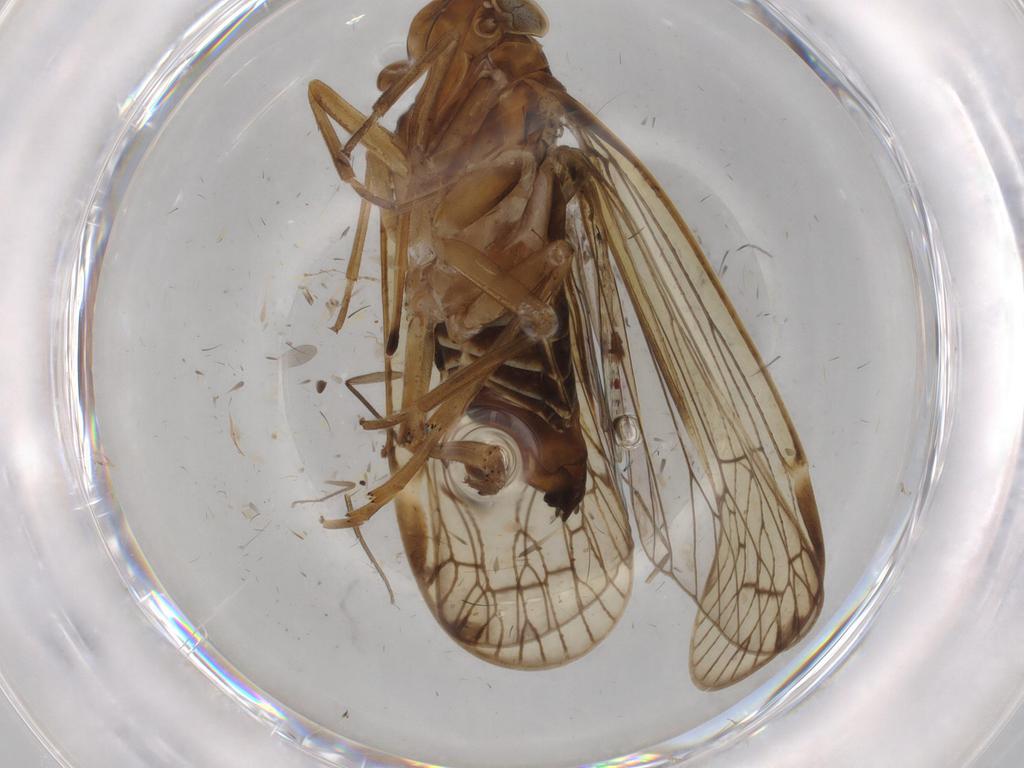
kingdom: Animalia
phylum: Arthropoda
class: Insecta
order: Hemiptera
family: Cixiidae
